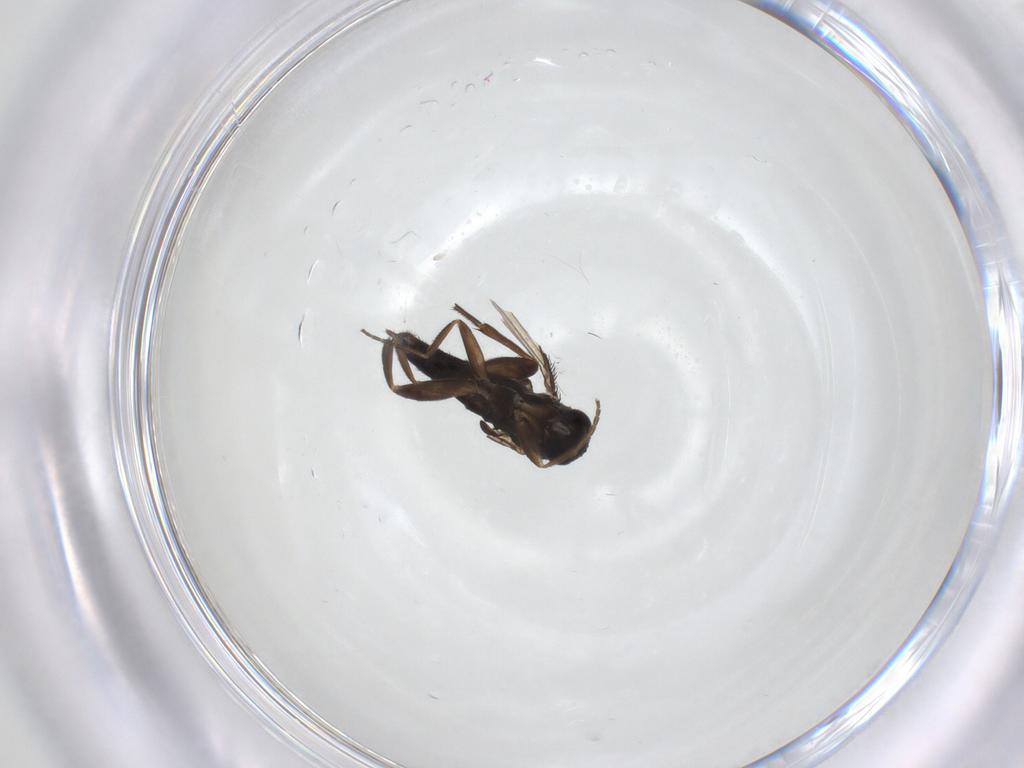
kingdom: Animalia
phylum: Arthropoda
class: Insecta
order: Diptera
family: Phoridae
